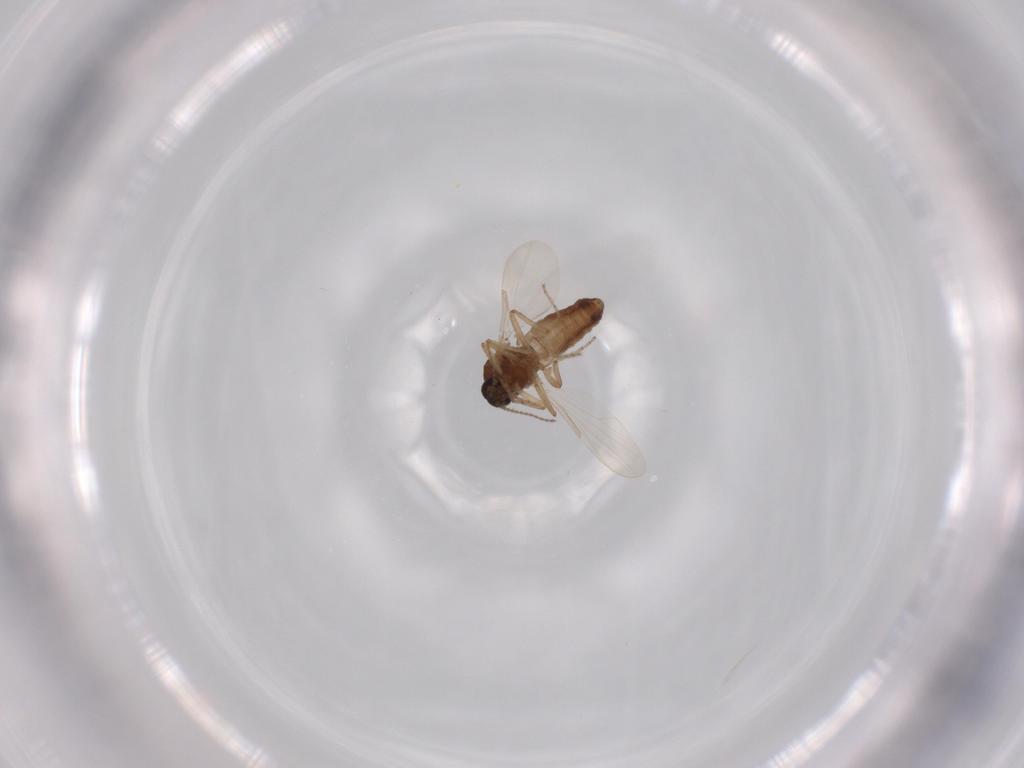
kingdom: Animalia
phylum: Arthropoda
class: Insecta
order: Diptera
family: Ceratopogonidae
